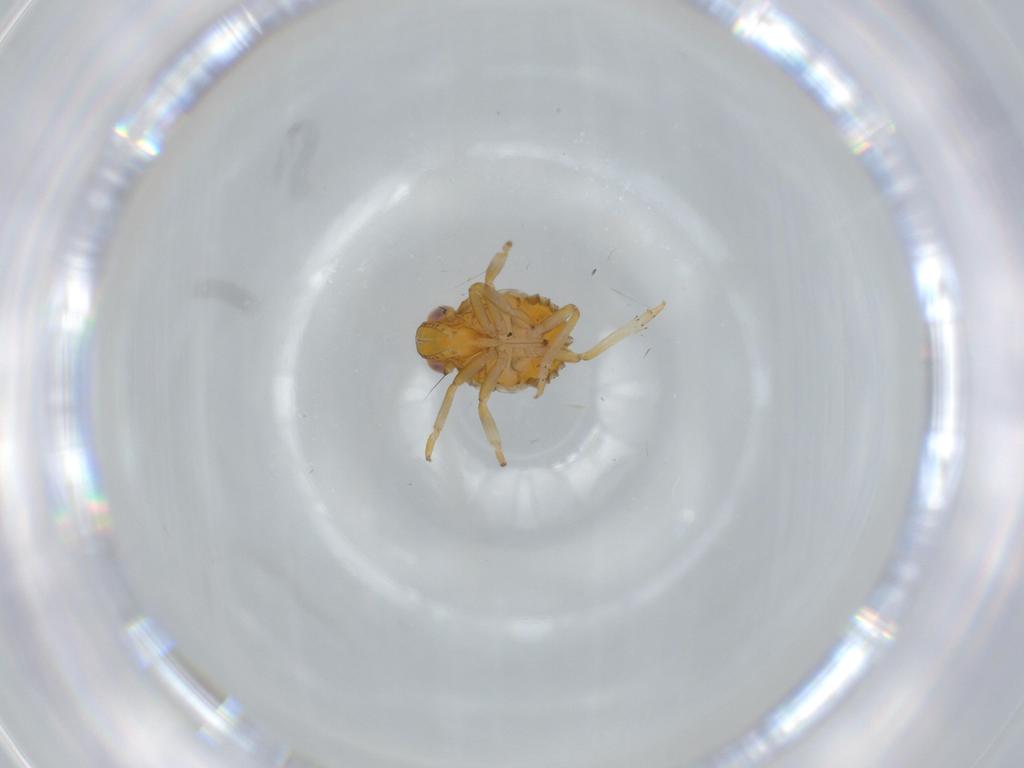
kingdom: Animalia
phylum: Arthropoda
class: Insecta
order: Hemiptera
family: Issidae
